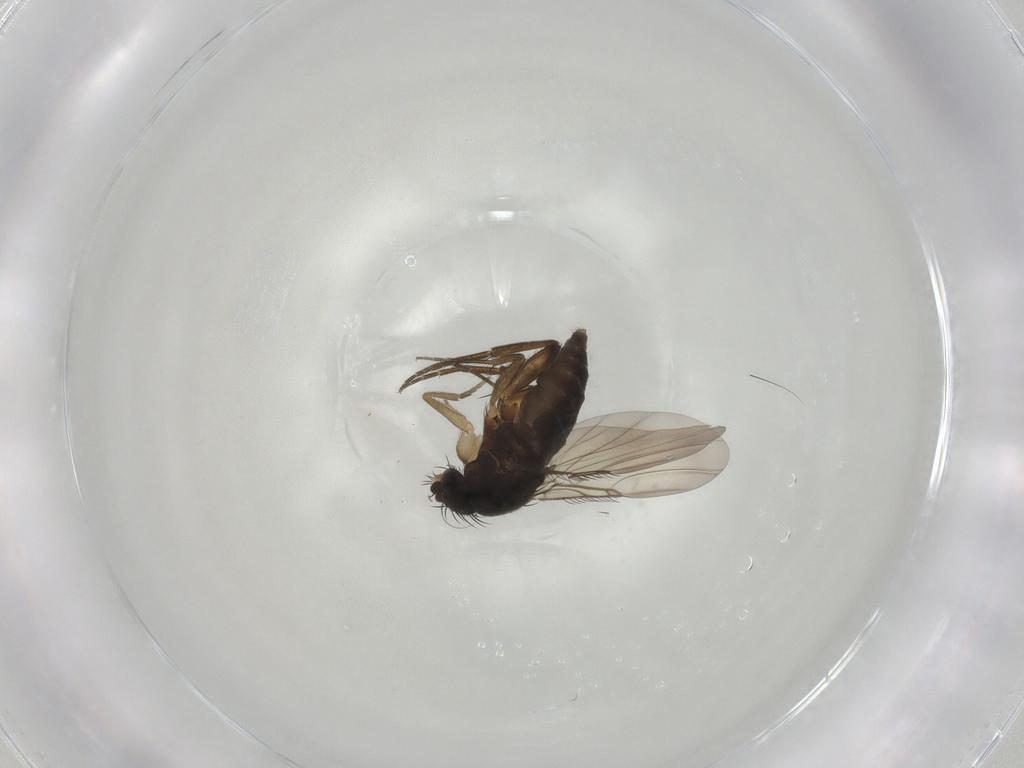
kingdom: Animalia
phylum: Arthropoda
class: Insecta
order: Diptera
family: Phoridae
